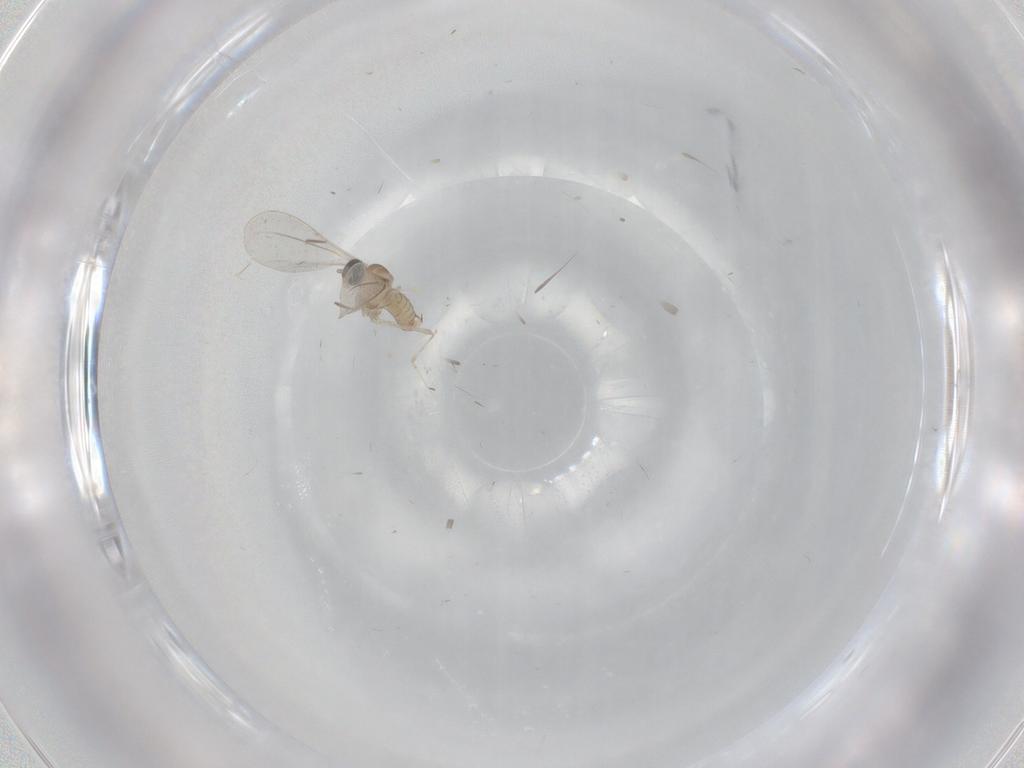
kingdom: Animalia
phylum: Arthropoda
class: Insecta
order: Diptera
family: Cecidomyiidae
